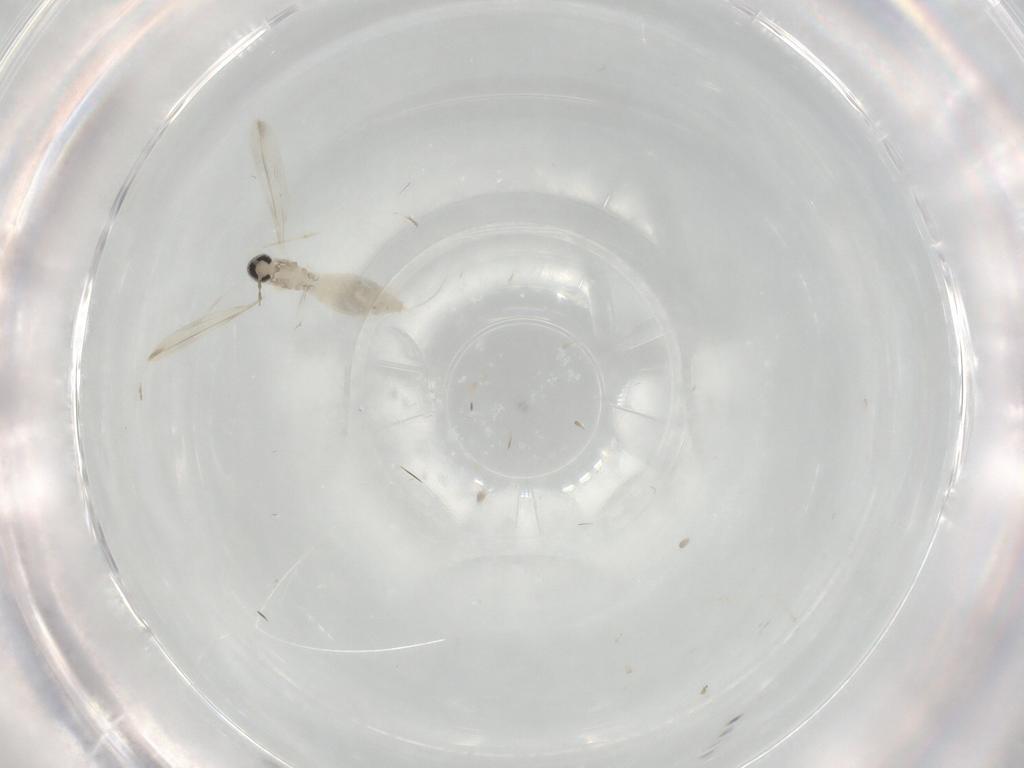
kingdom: Animalia
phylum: Arthropoda
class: Insecta
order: Diptera
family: Cecidomyiidae
